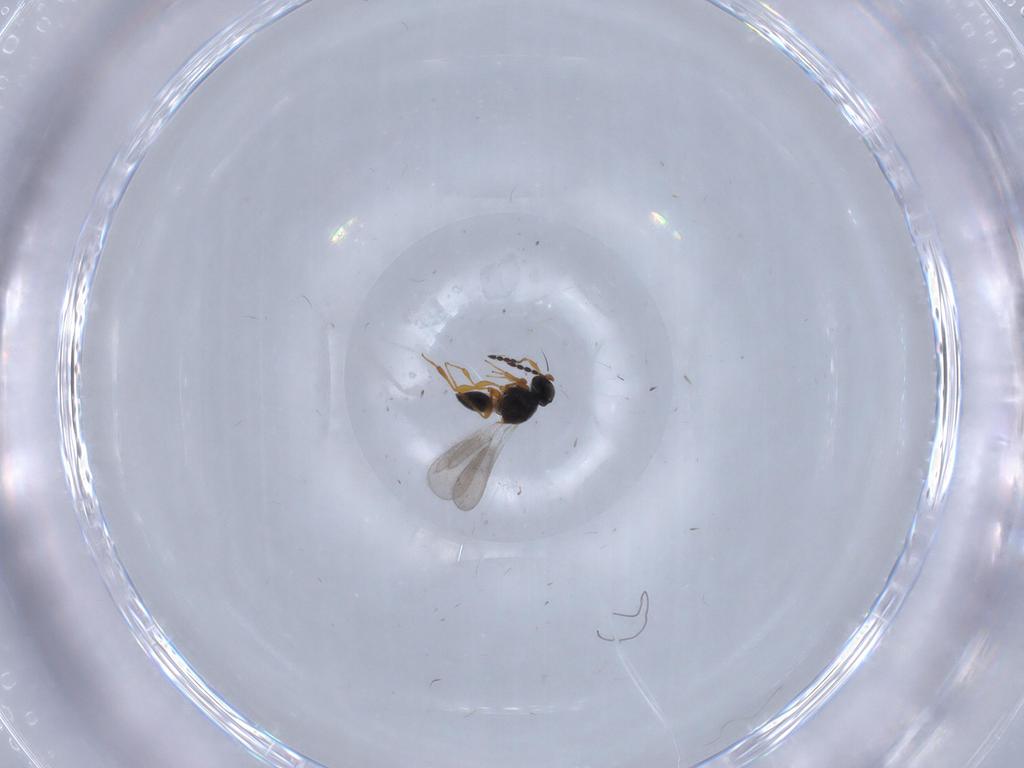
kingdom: Animalia
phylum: Arthropoda
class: Insecta
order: Hymenoptera
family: Platygastridae
